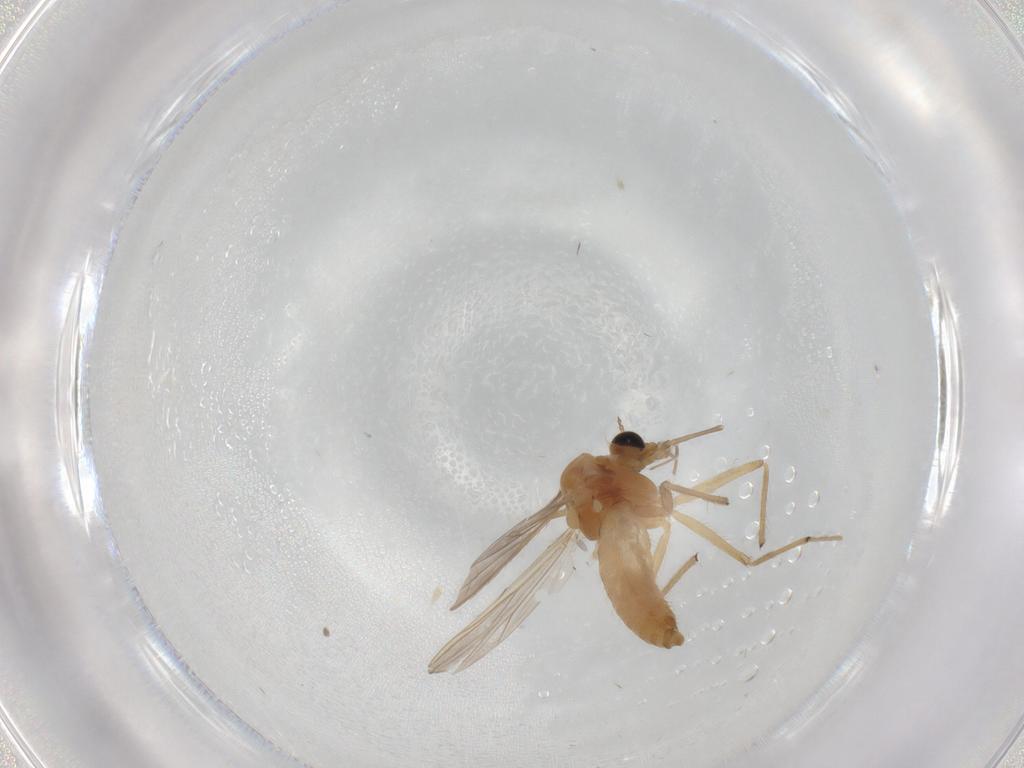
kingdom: Animalia
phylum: Arthropoda
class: Insecta
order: Diptera
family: Chironomidae
